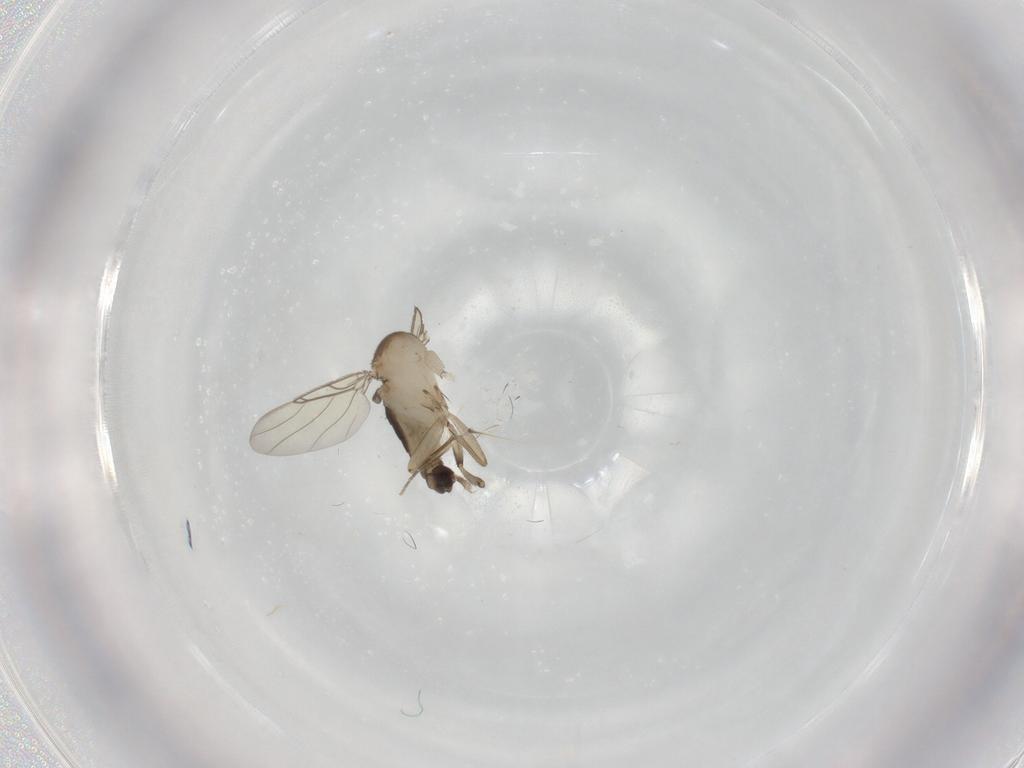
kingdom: Animalia
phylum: Arthropoda
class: Insecta
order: Diptera
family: Phoridae
